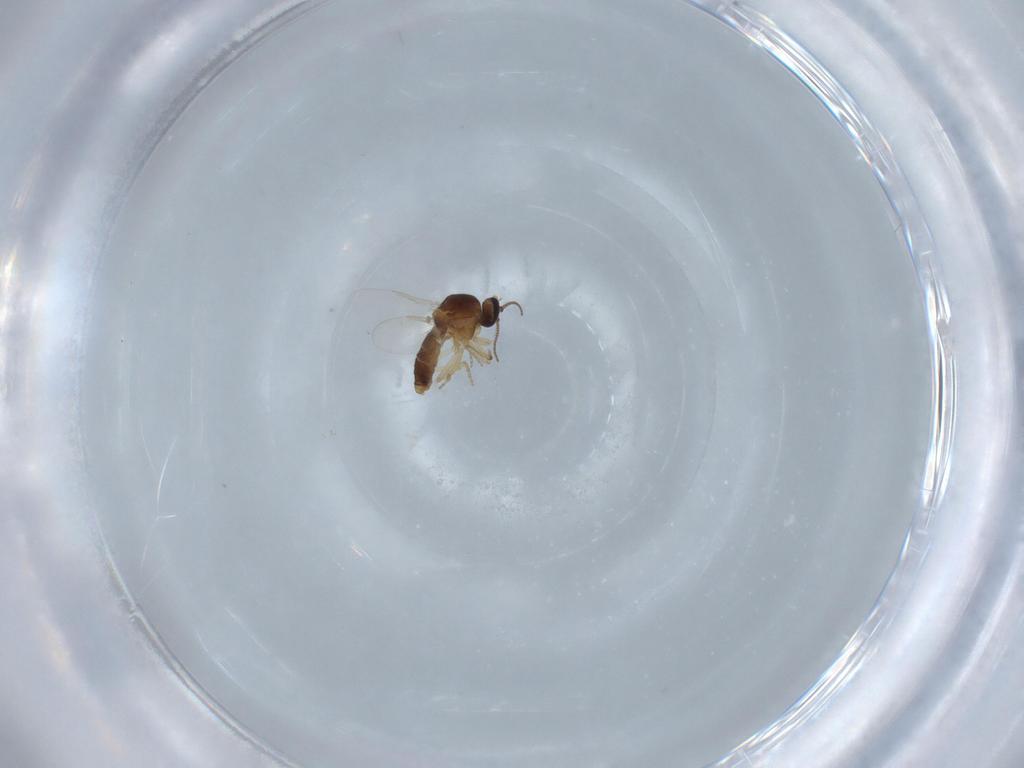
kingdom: Animalia
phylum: Arthropoda
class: Insecta
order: Diptera
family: Ceratopogonidae
